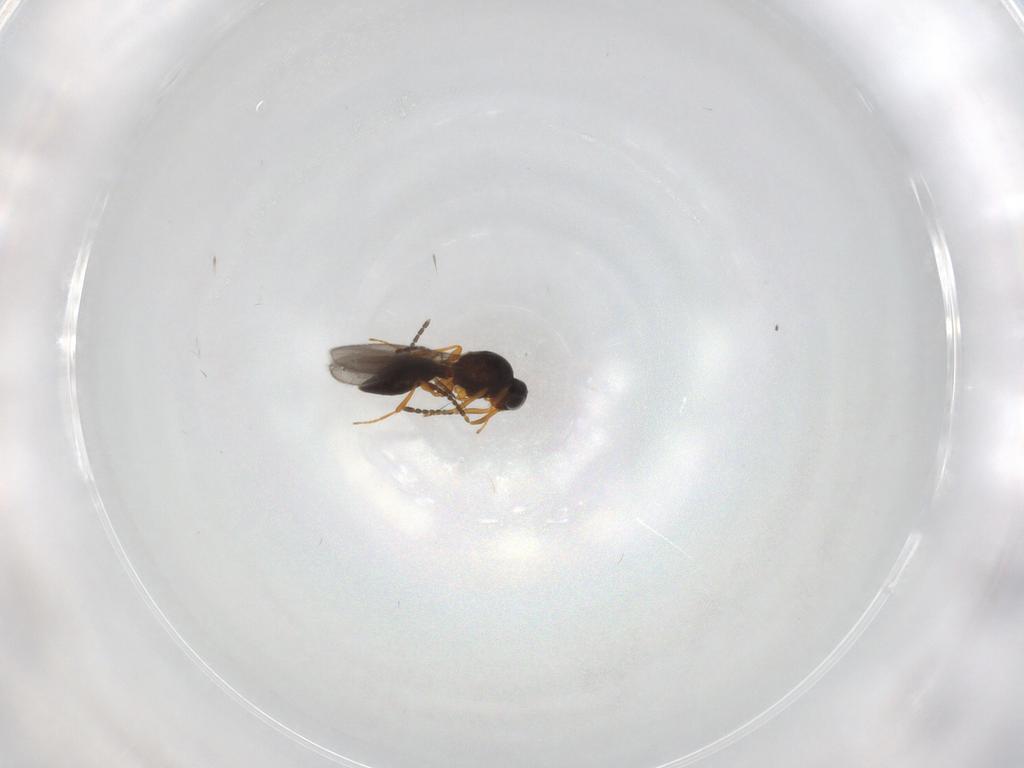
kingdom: Animalia
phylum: Arthropoda
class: Insecta
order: Hymenoptera
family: Platygastridae
